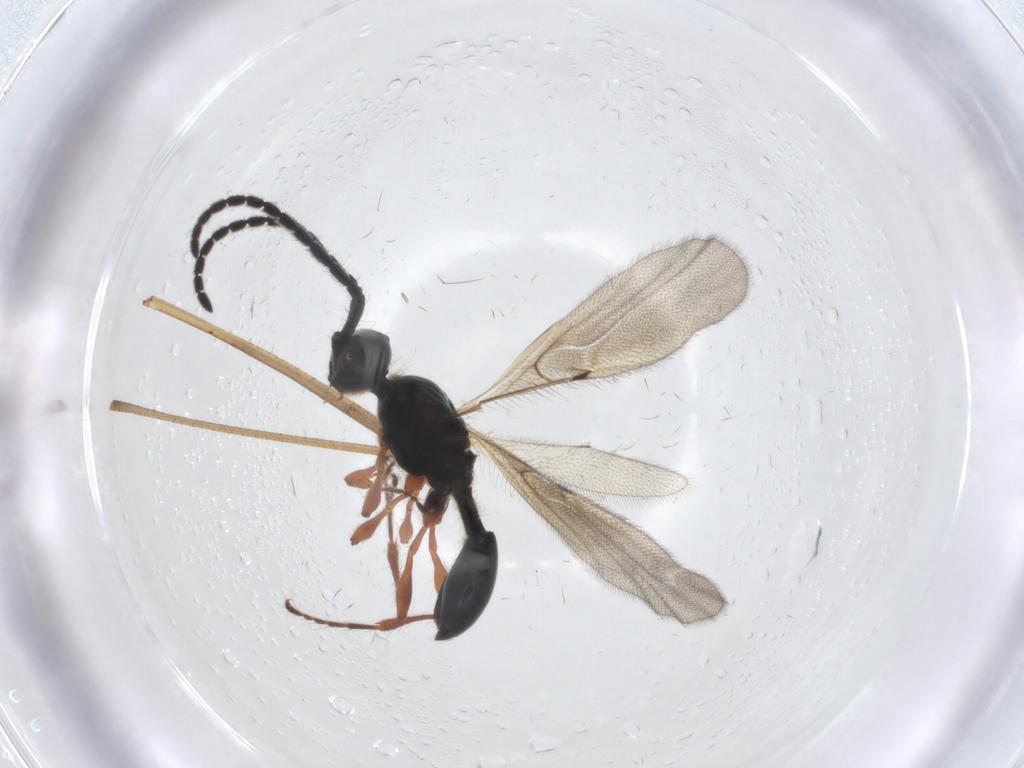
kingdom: Animalia
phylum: Arthropoda
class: Insecta
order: Hymenoptera
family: Diapriidae
